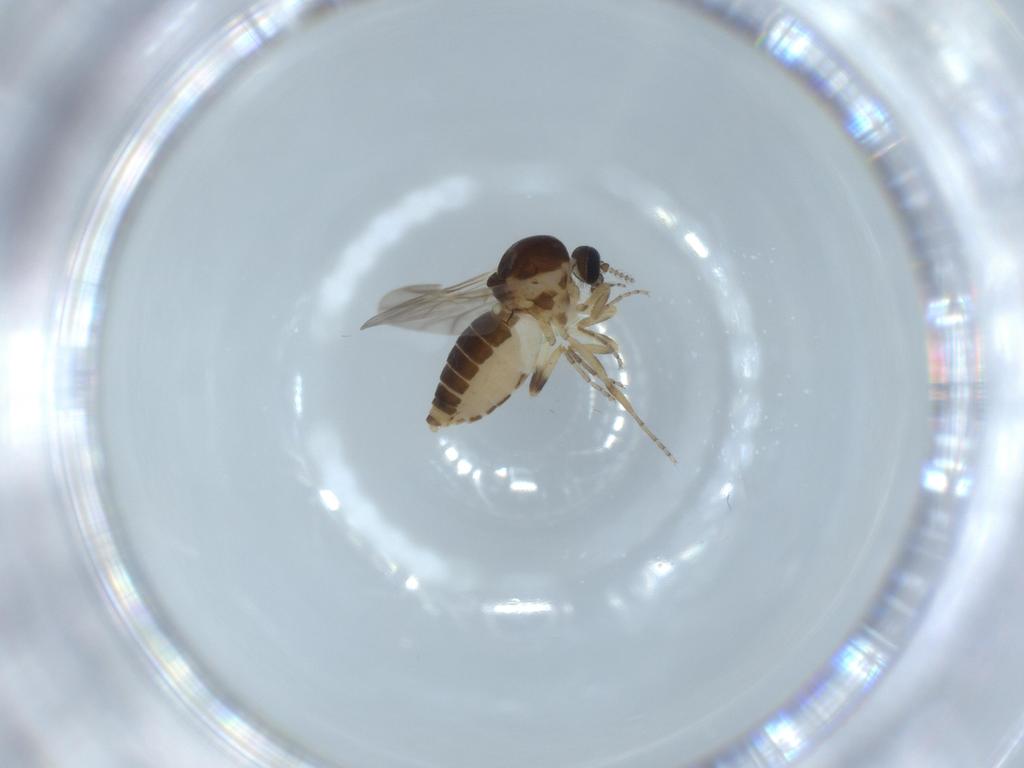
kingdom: Animalia
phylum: Arthropoda
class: Insecta
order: Diptera
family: Ceratopogonidae
